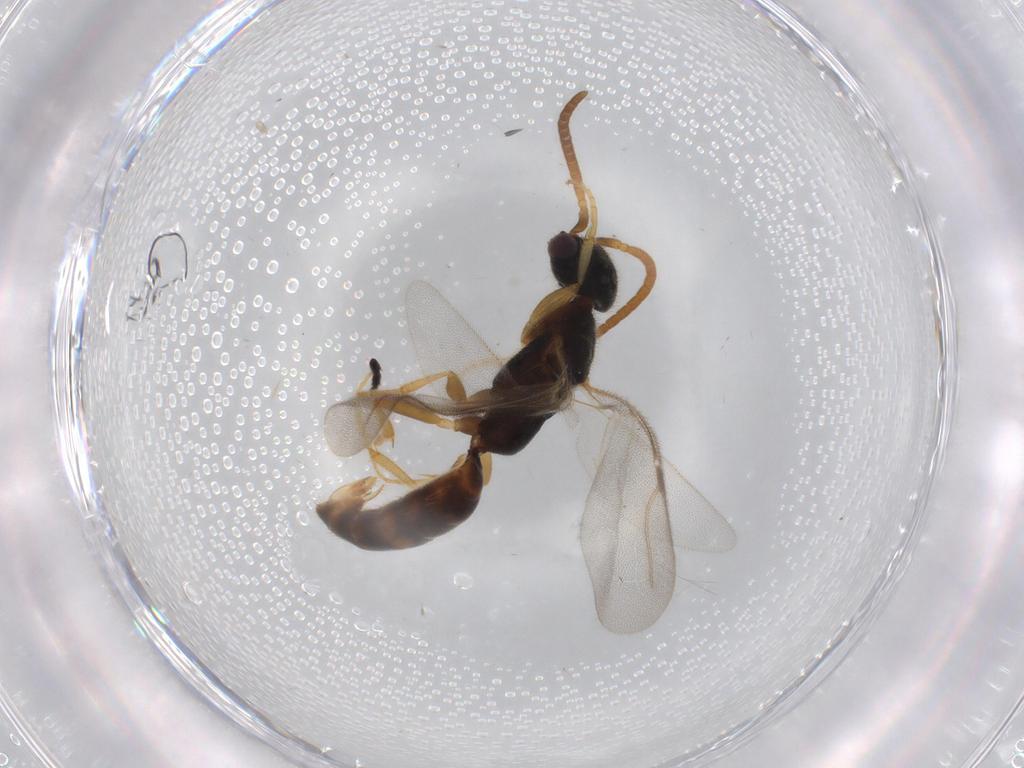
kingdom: Animalia
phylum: Arthropoda
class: Insecta
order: Hymenoptera
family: Bethylidae
